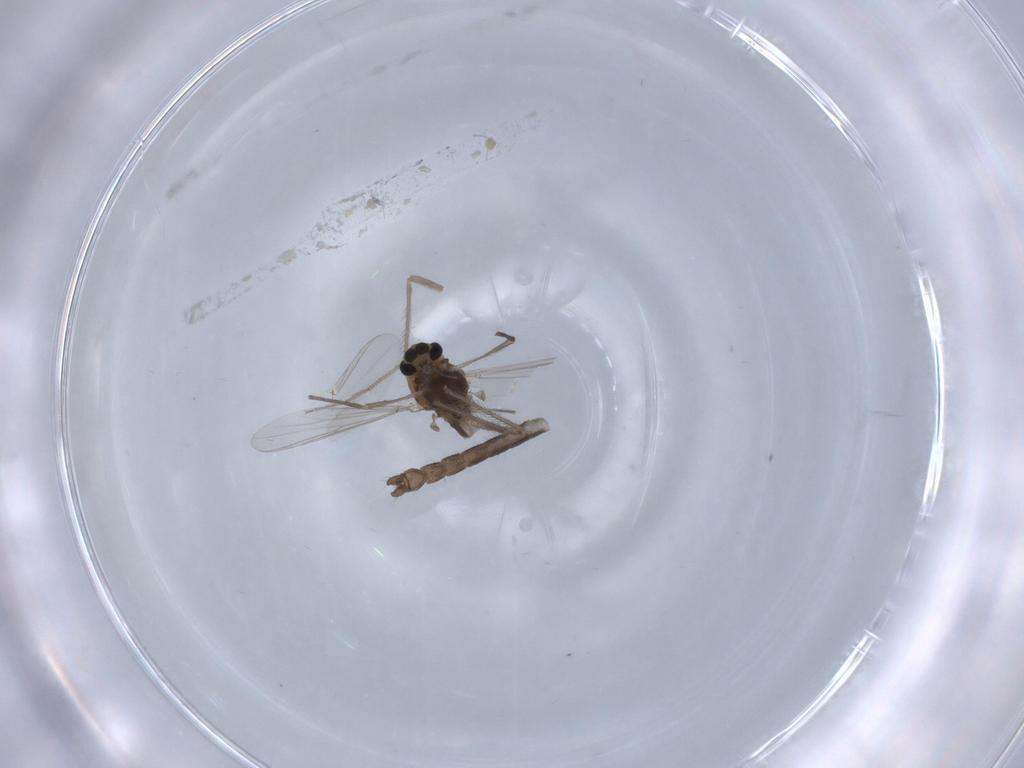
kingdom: Animalia
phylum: Arthropoda
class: Insecta
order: Diptera
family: Chironomidae
